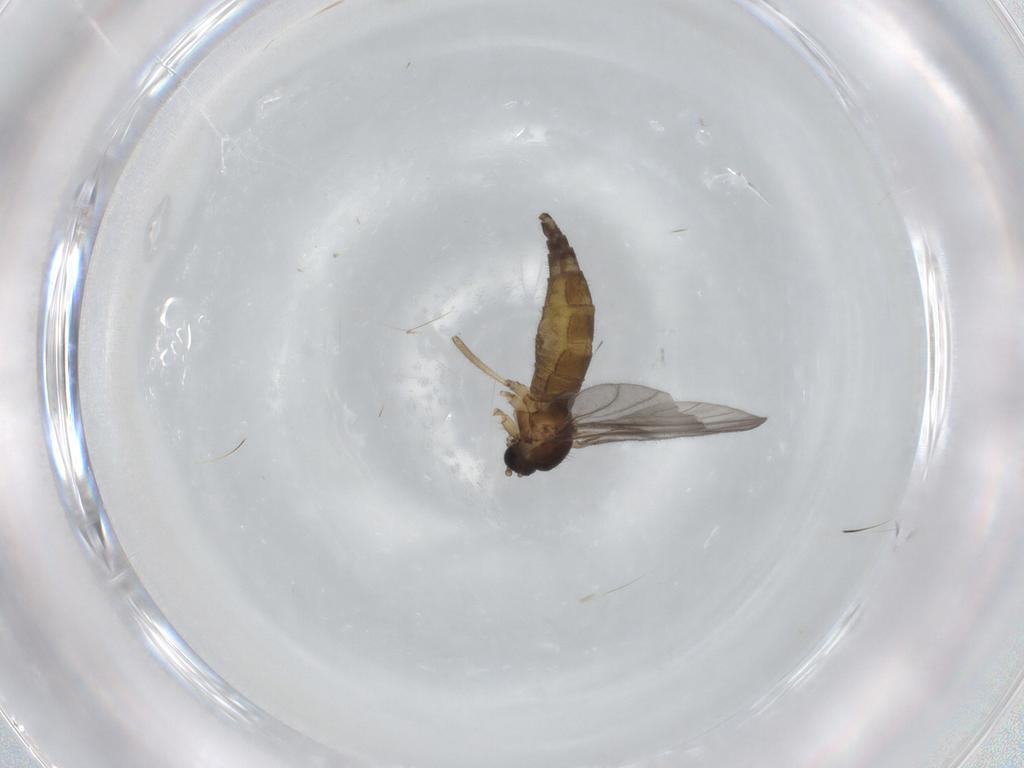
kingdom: Animalia
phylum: Arthropoda
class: Insecta
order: Diptera
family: Sciaridae
